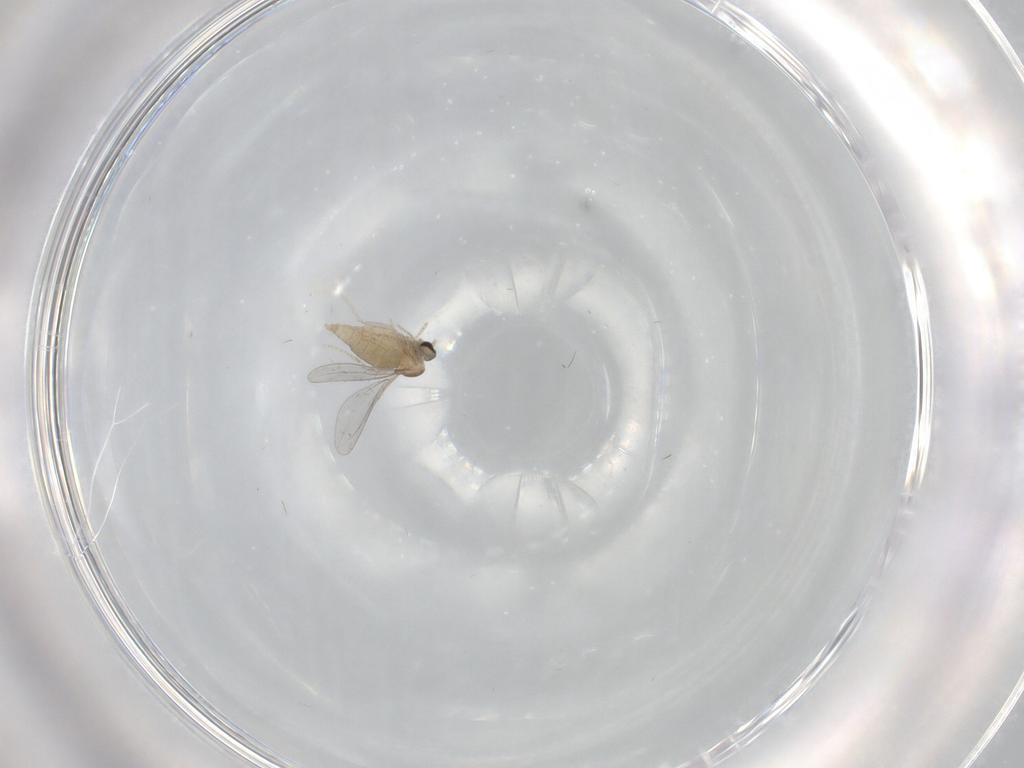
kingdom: Animalia
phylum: Arthropoda
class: Insecta
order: Diptera
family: Cecidomyiidae
